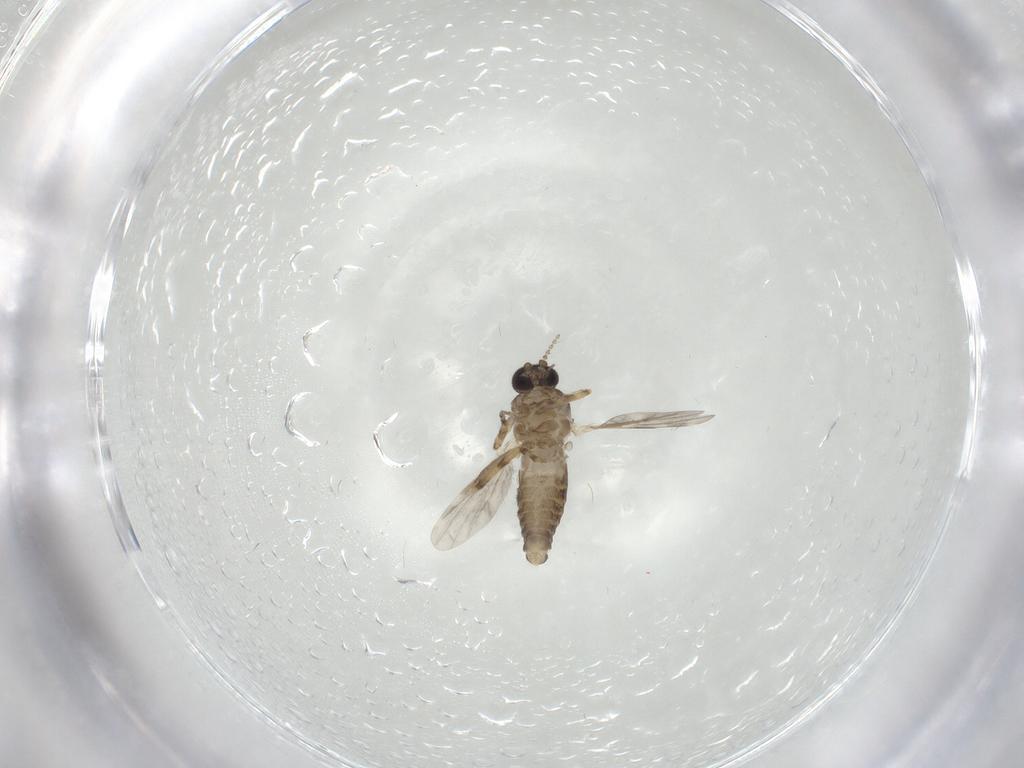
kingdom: Animalia
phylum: Arthropoda
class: Insecta
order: Diptera
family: Ceratopogonidae
